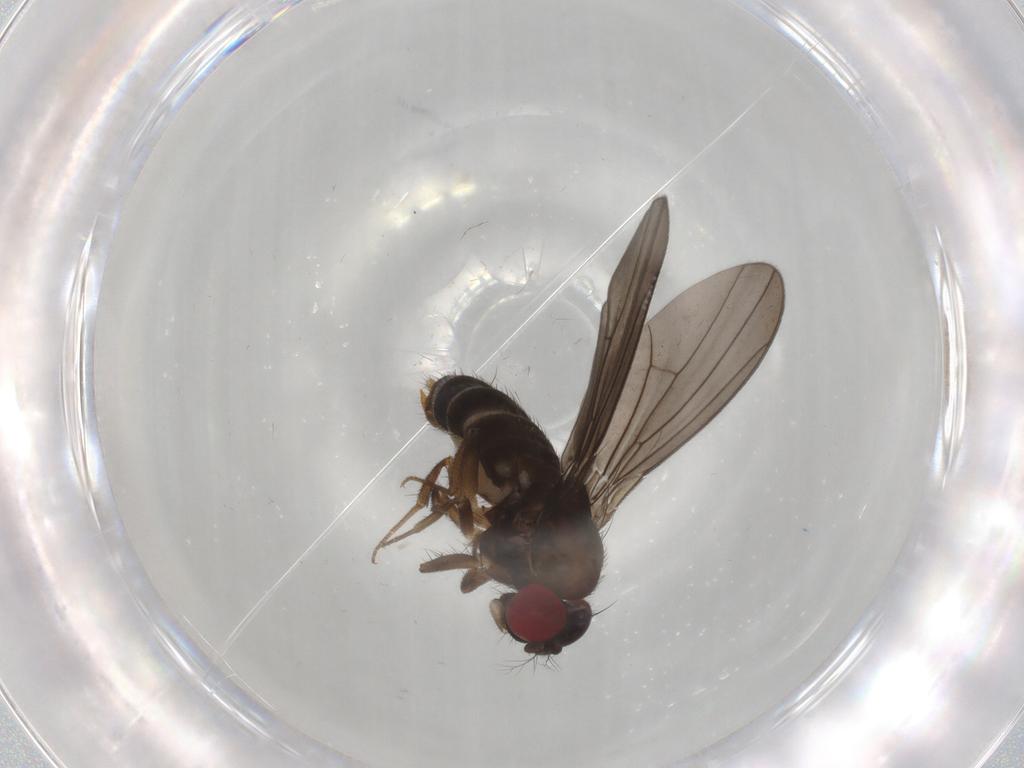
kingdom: Animalia
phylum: Arthropoda
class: Insecta
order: Diptera
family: Drosophilidae
